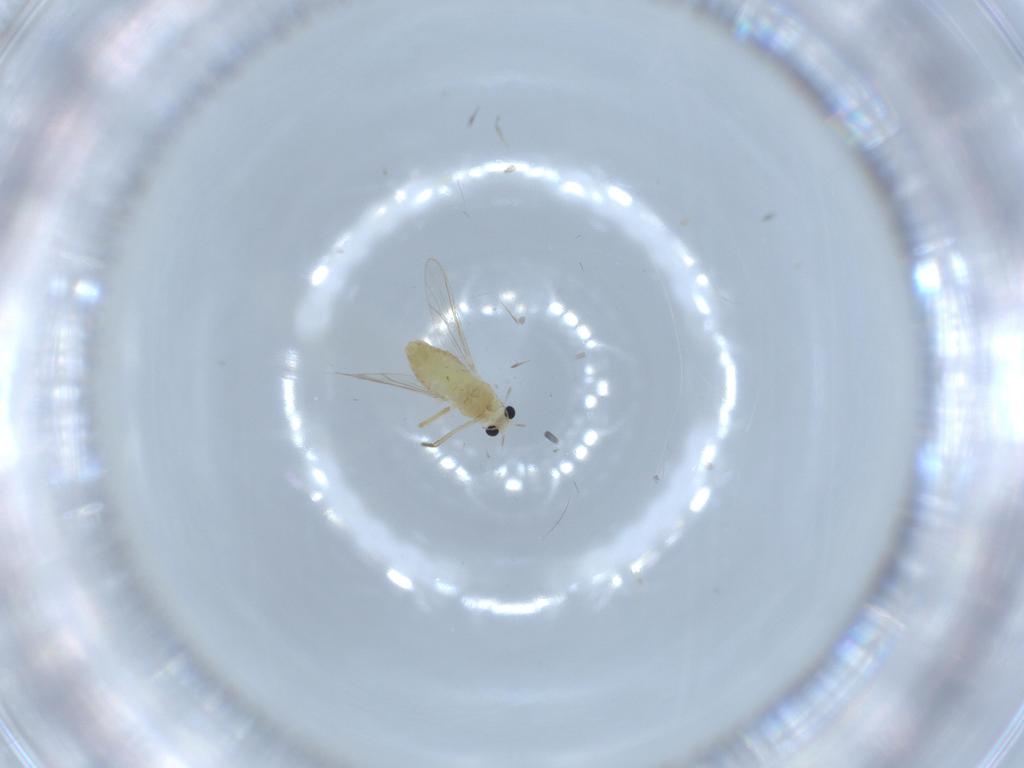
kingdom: Animalia
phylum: Arthropoda
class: Insecta
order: Diptera
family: Chironomidae
